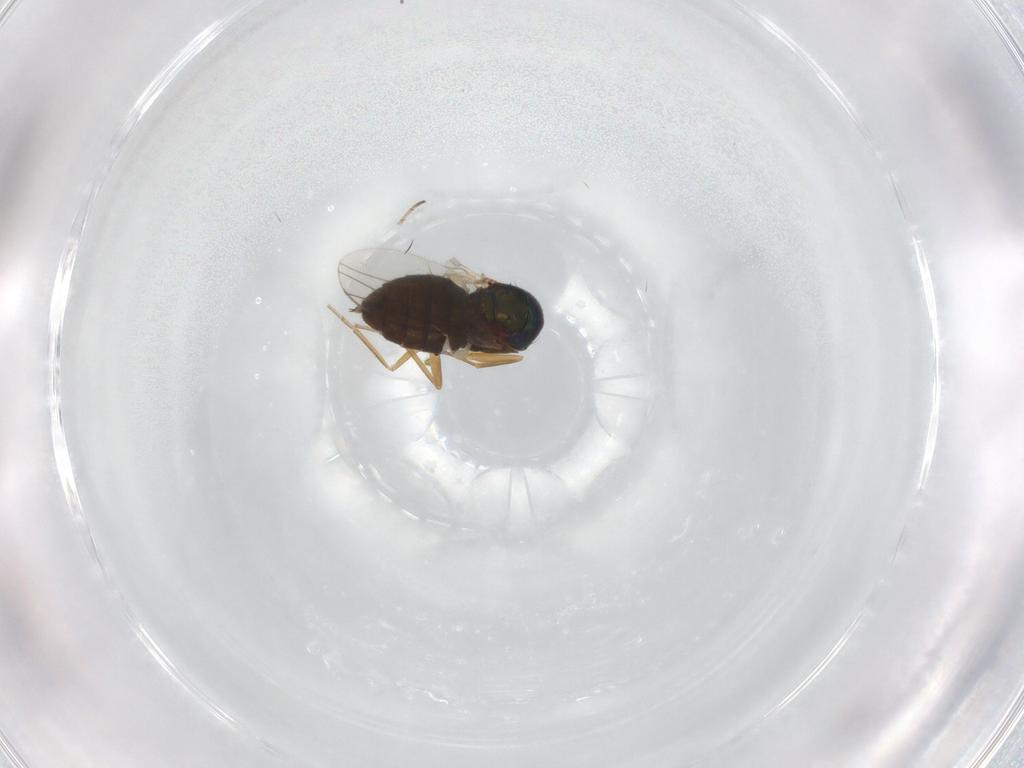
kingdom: Animalia
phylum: Arthropoda
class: Insecta
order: Diptera
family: Dolichopodidae
